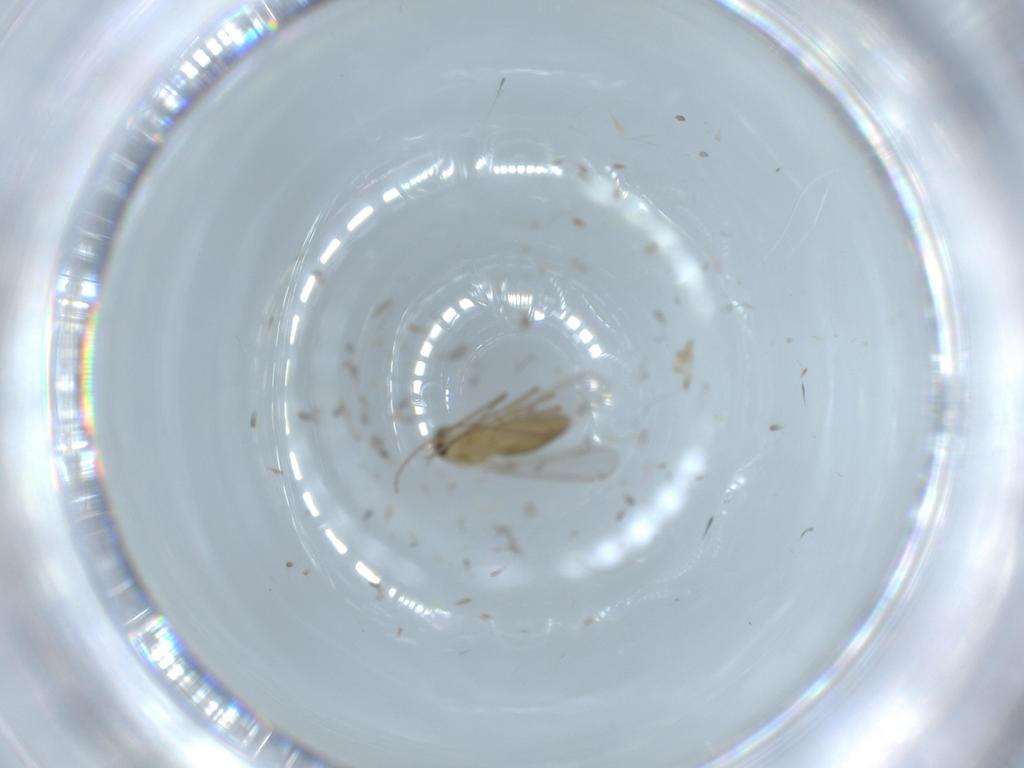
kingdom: Animalia
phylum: Arthropoda
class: Insecta
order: Diptera
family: Chironomidae
